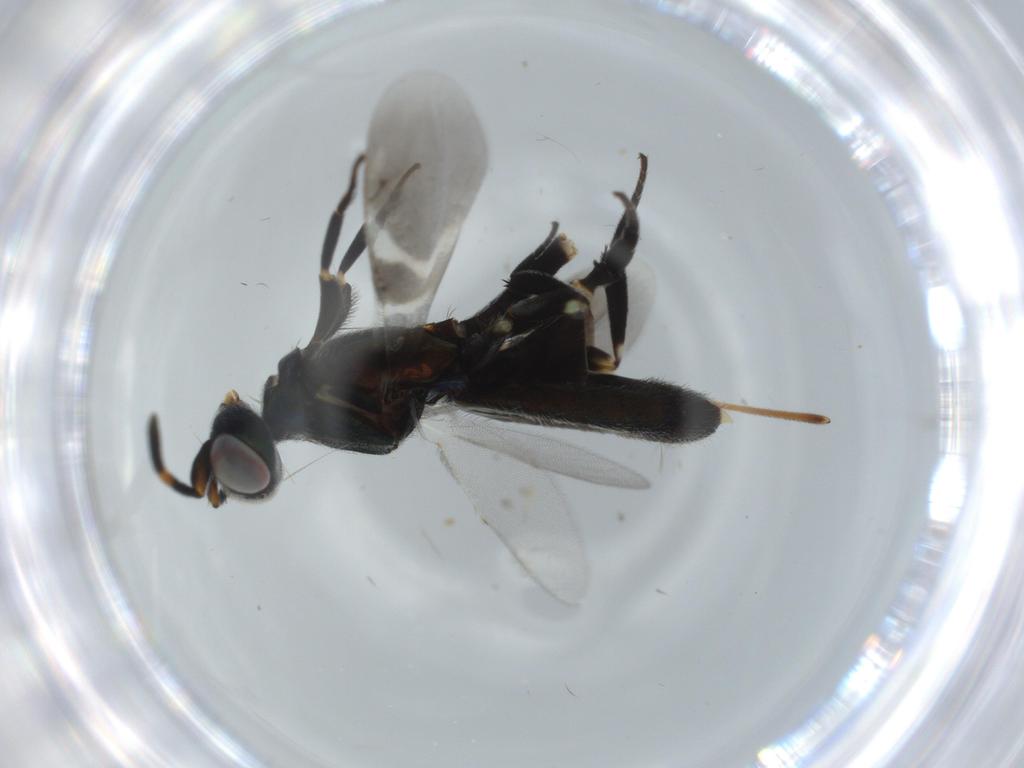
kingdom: Animalia
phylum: Arthropoda
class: Insecta
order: Hymenoptera
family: Eupelmidae
